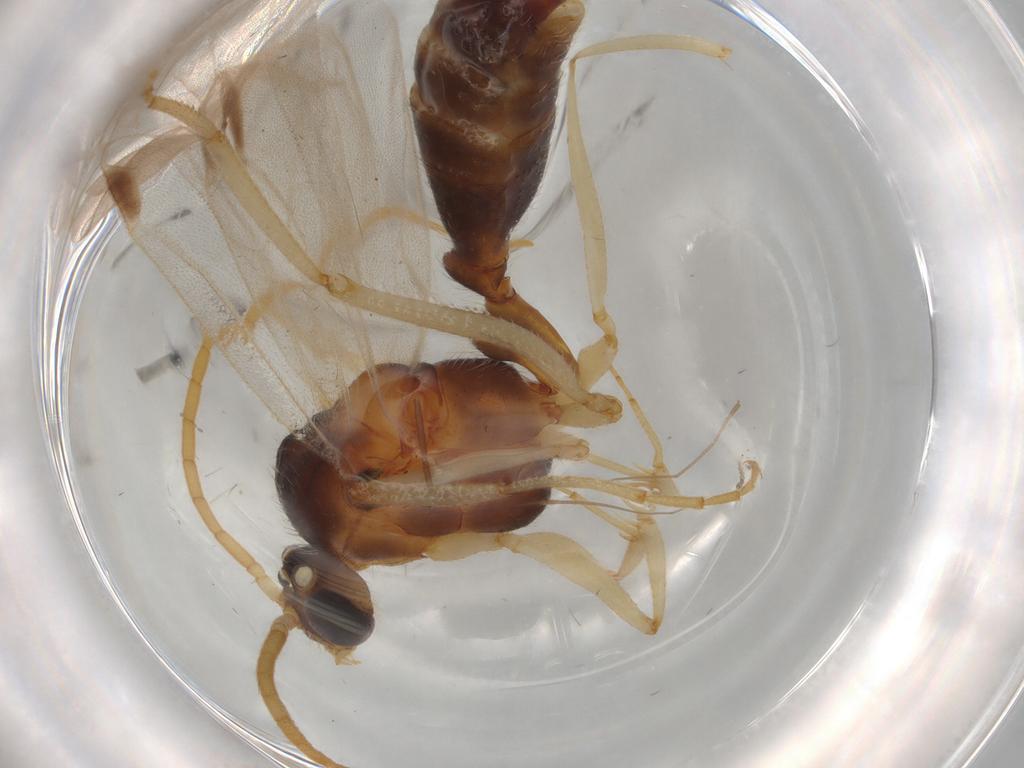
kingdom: Animalia
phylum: Arthropoda
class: Insecta
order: Hymenoptera
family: Formicidae
